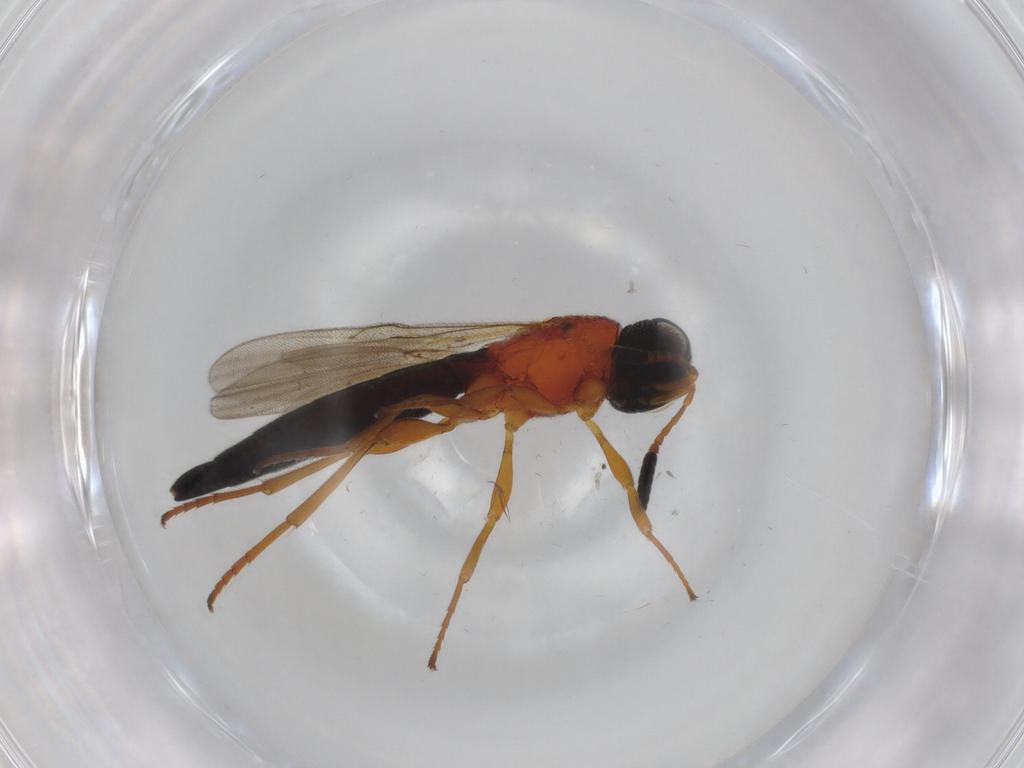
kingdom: Animalia
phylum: Arthropoda
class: Insecta
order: Hymenoptera
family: Scelionidae
